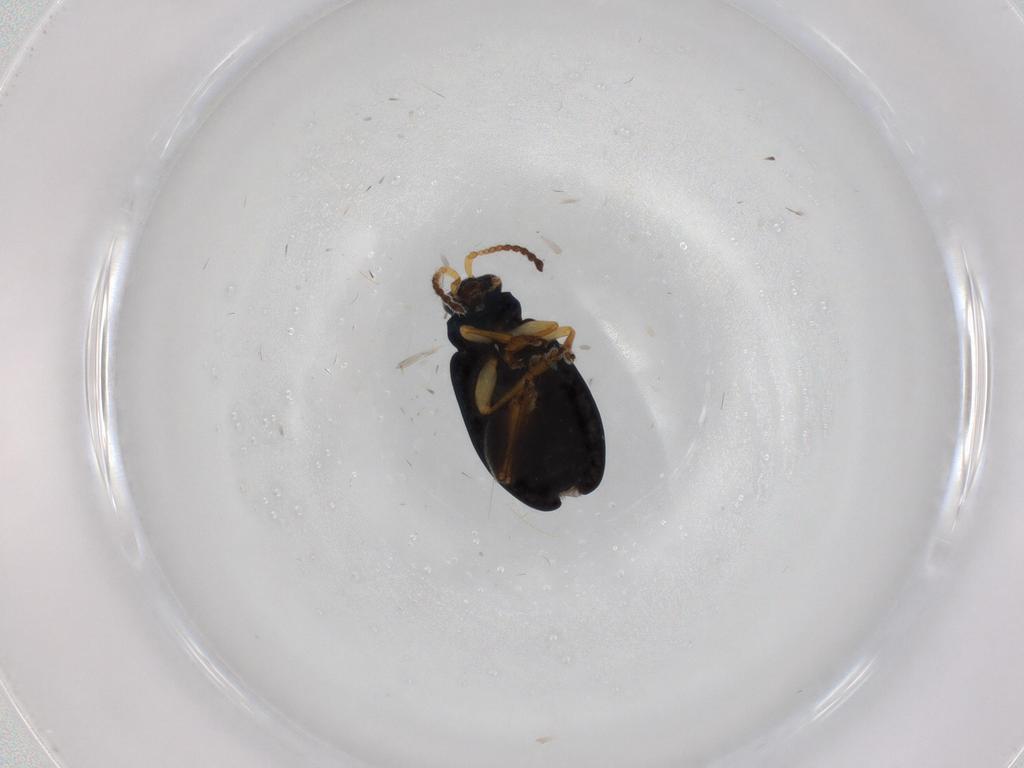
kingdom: Animalia
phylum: Arthropoda
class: Insecta
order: Coleoptera
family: Chrysomelidae
